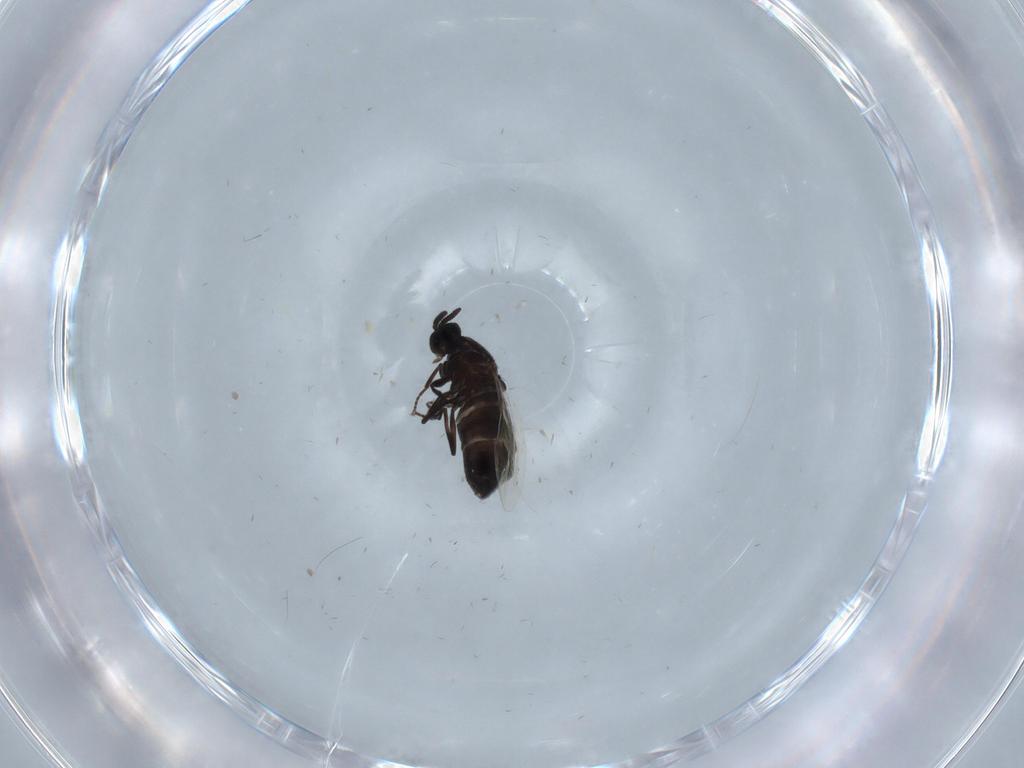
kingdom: Animalia
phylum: Arthropoda
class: Insecta
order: Diptera
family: Scatopsidae
